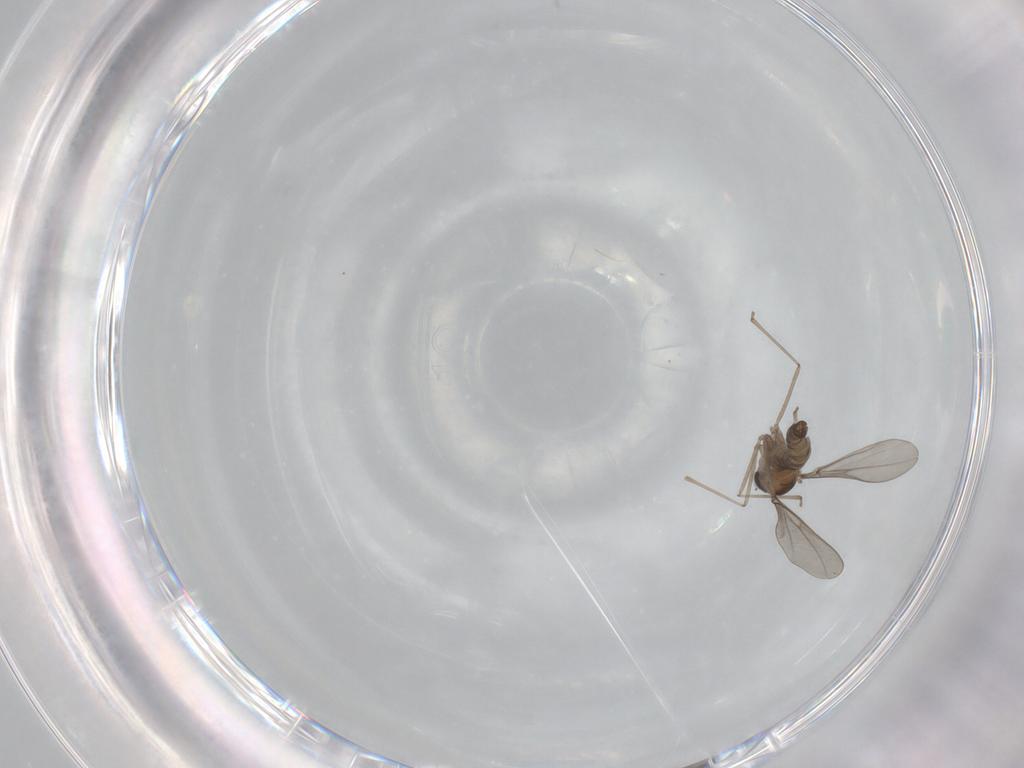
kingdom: Animalia
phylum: Arthropoda
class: Insecta
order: Diptera
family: Cecidomyiidae
